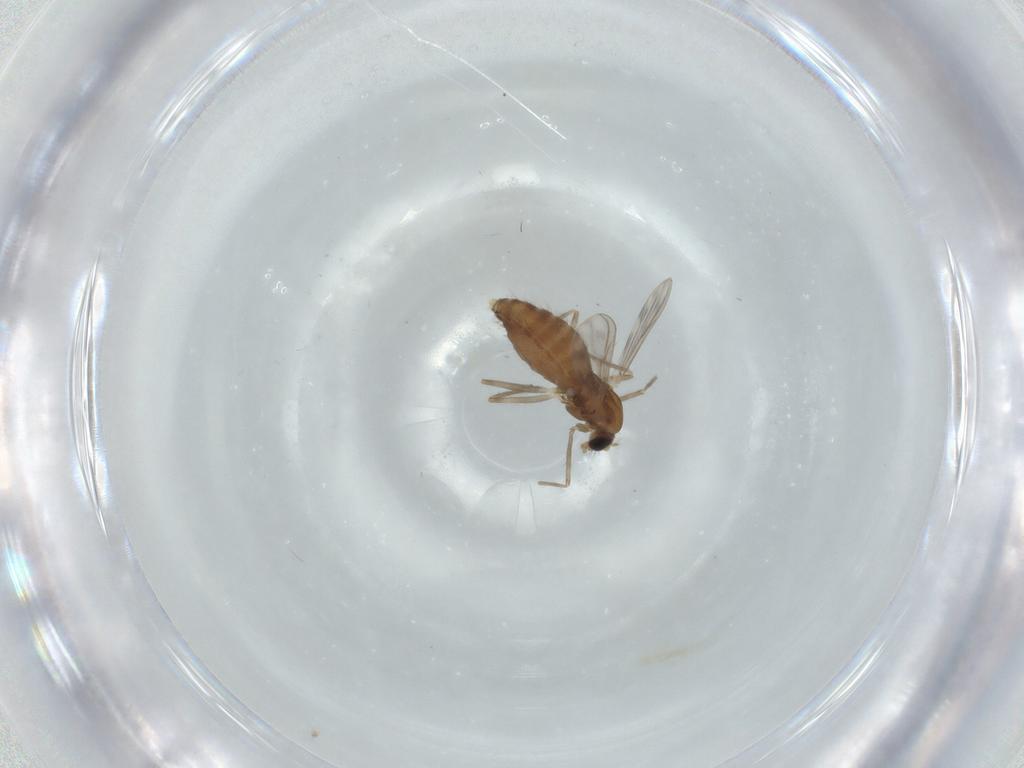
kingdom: Animalia
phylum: Arthropoda
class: Insecta
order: Diptera
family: Chironomidae
